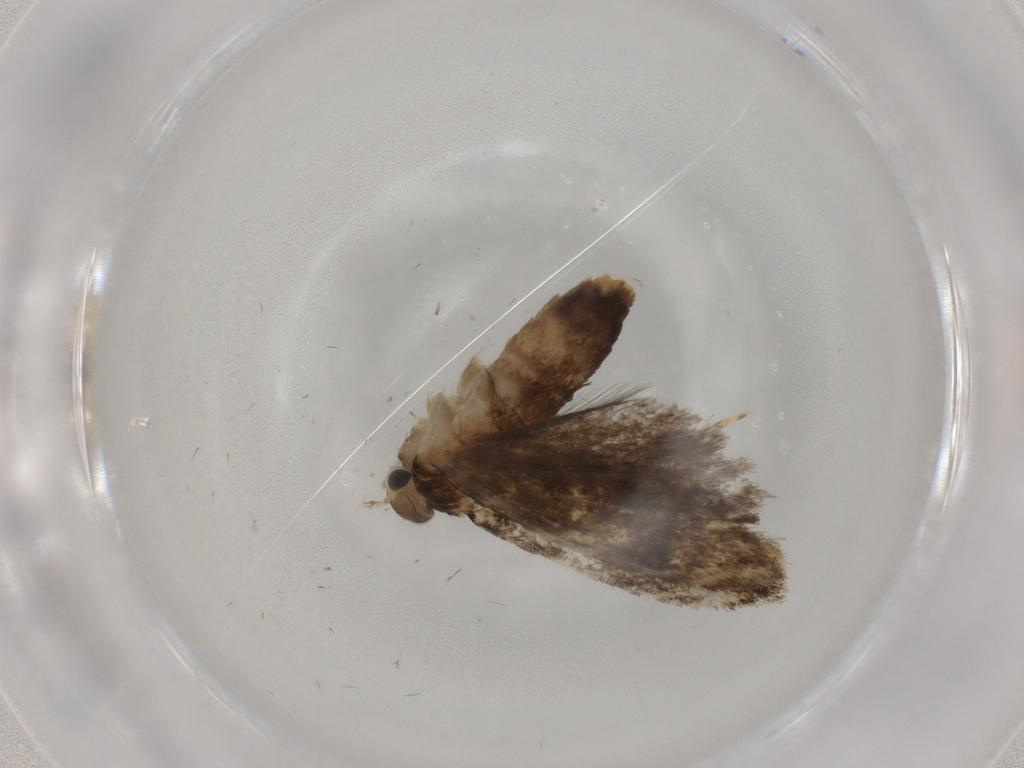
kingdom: Animalia
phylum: Arthropoda
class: Insecta
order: Lepidoptera
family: Tineidae
